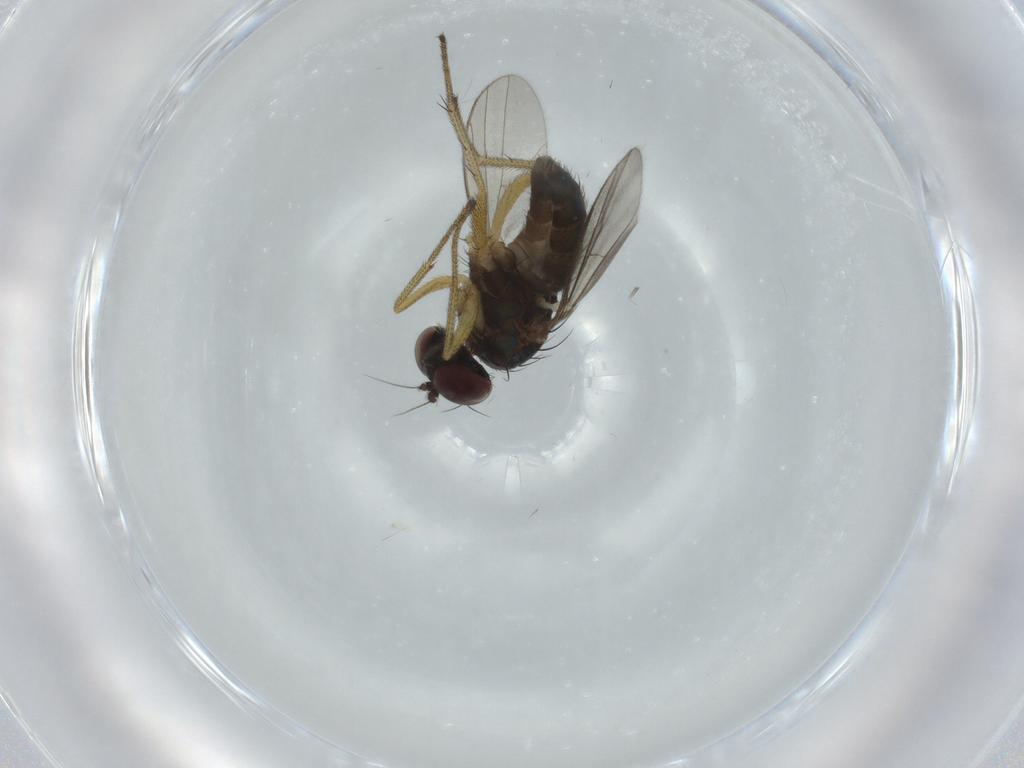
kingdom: Animalia
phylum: Arthropoda
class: Insecta
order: Diptera
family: Dolichopodidae
